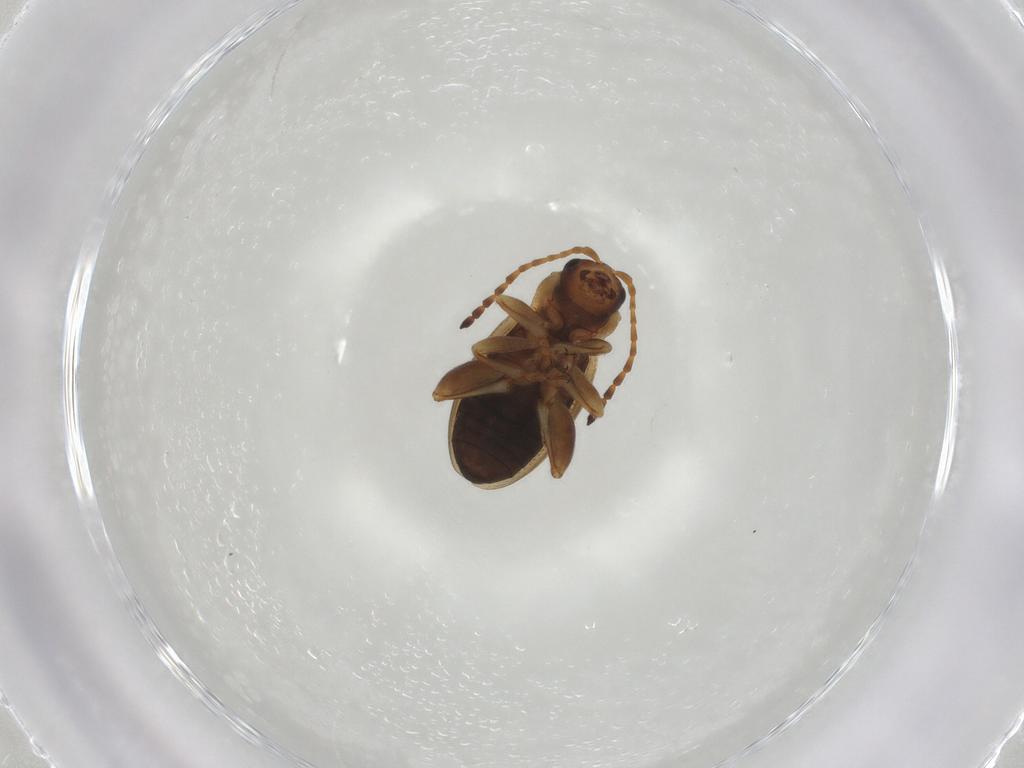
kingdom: Animalia
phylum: Arthropoda
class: Insecta
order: Coleoptera
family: Chrysomelidae
